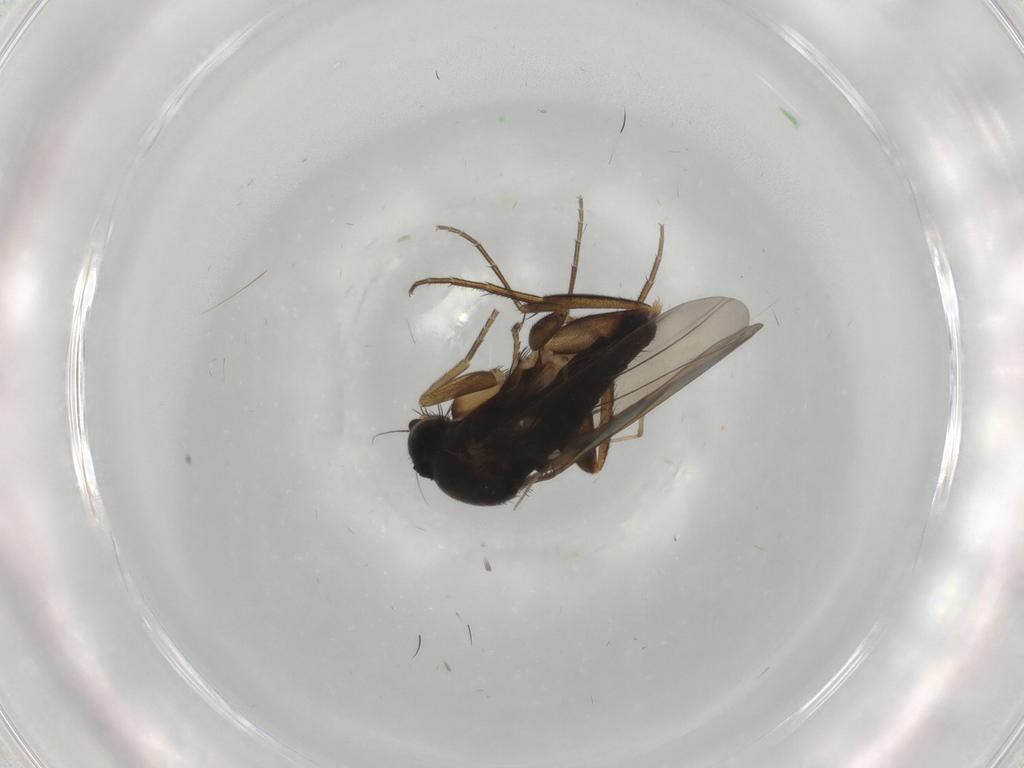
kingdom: Animalia
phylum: Arthropoda
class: Insecta
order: Diptera
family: Phoridae
